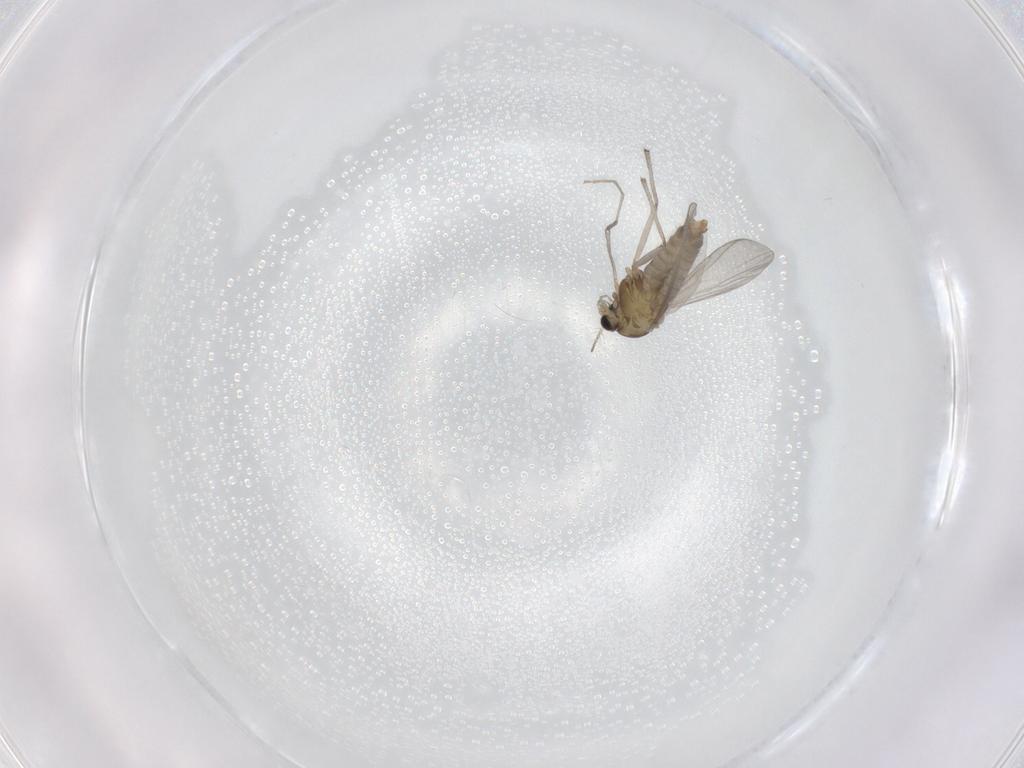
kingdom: Animalia
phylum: Arthropoda
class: Insecta
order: Diptera
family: Chironomidae
